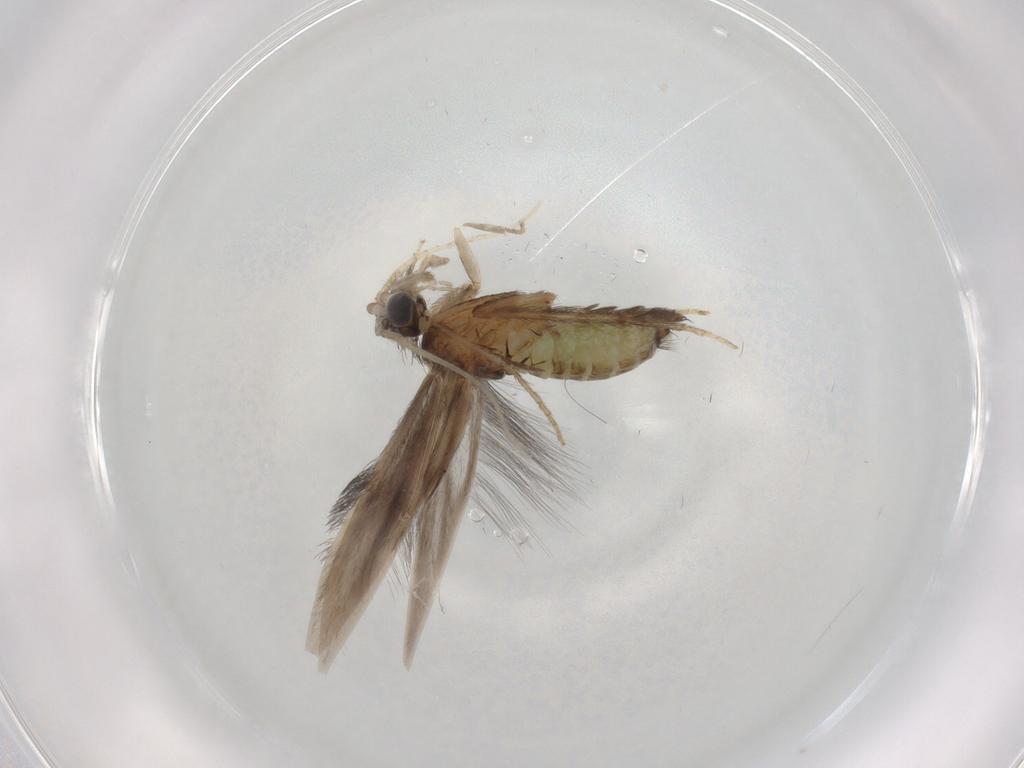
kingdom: Animalia
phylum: Arthropoda
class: Insecta
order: Trichoptera
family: Hydroptilidae
